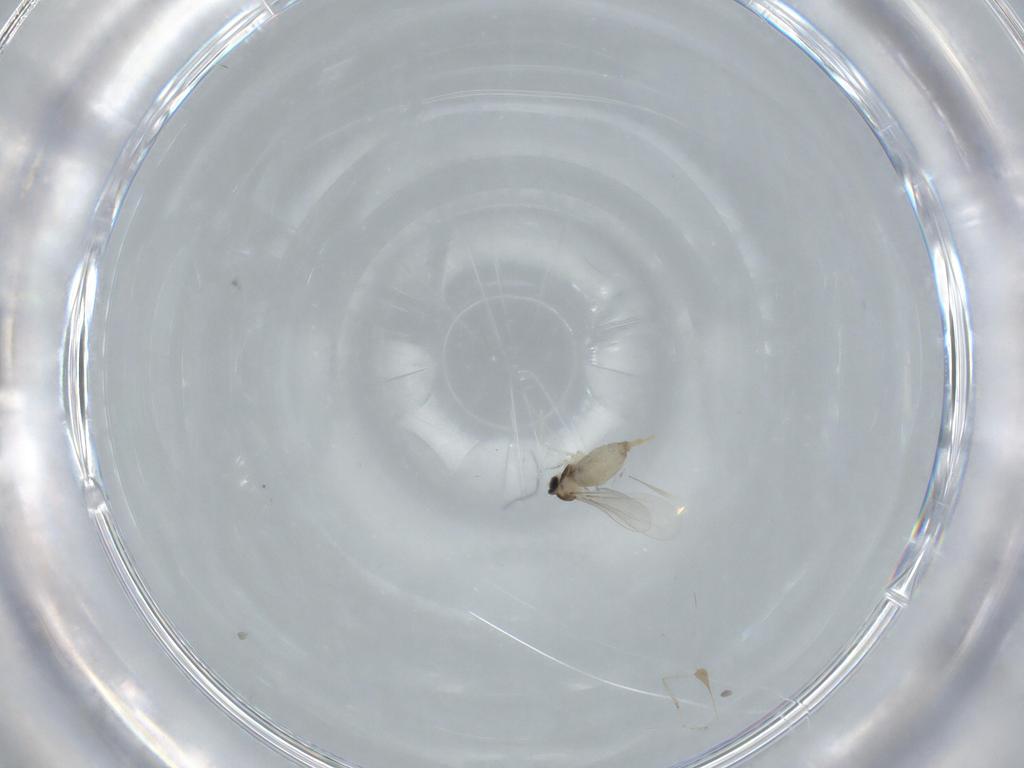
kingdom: Animalia
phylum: Arthropoda
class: Insecta
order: Diptera
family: Cecidomyiidae
